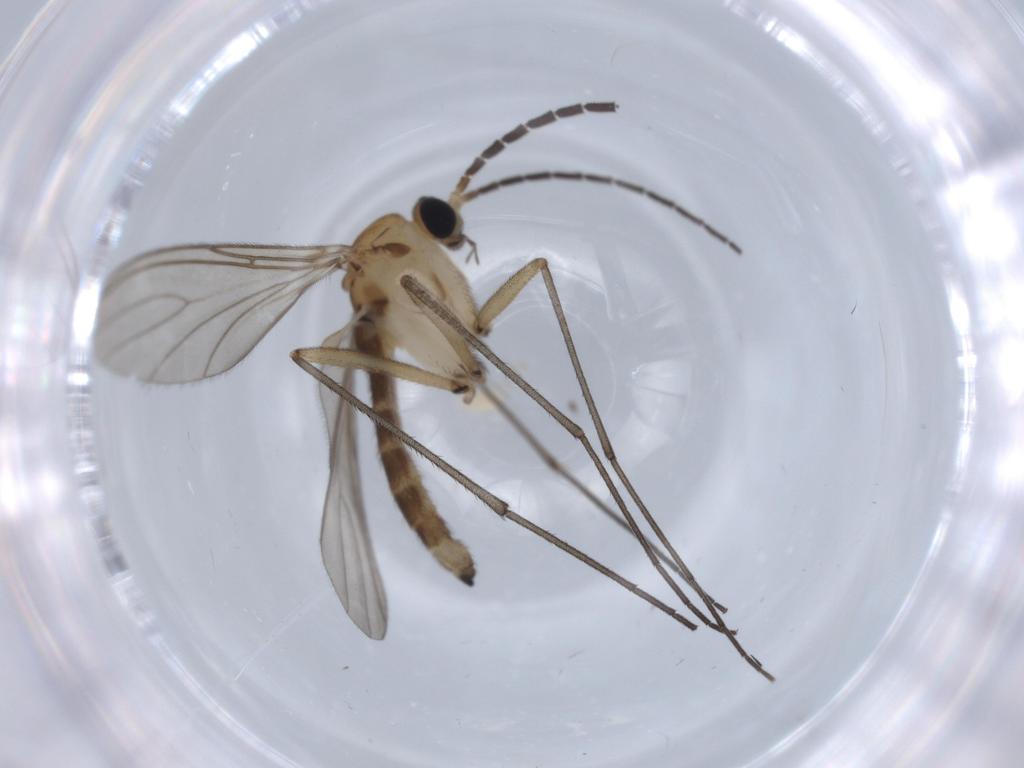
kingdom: Animalia
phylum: Arthropoda
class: Insecta
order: Diptera
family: Sciaridae
